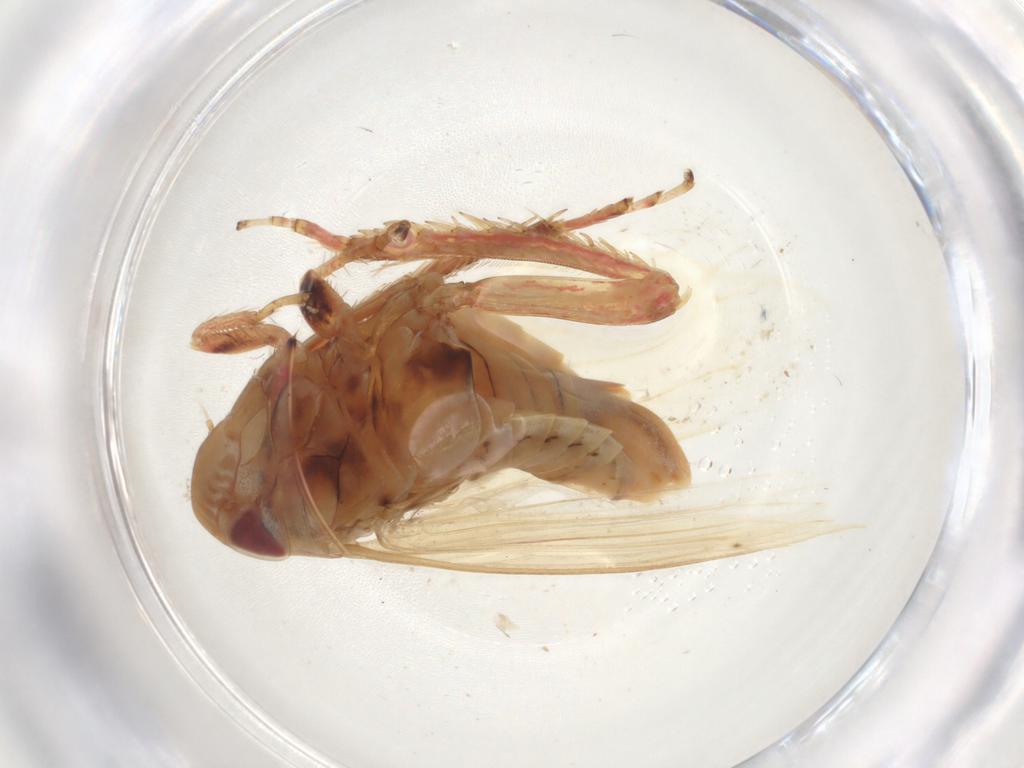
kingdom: Animalia
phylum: Arthropoda
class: Insecta
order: Hemiptera
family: Cicadellidae
